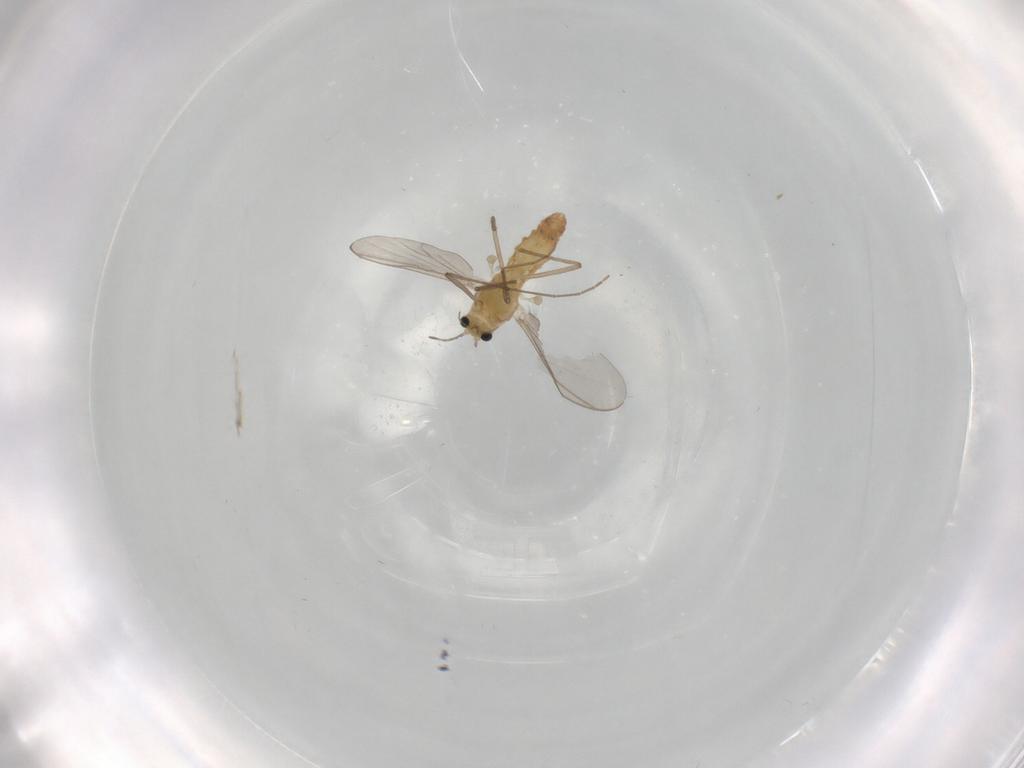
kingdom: Animalia
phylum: Arthropoda
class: Insecta
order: Diptera
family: Chironomidae
